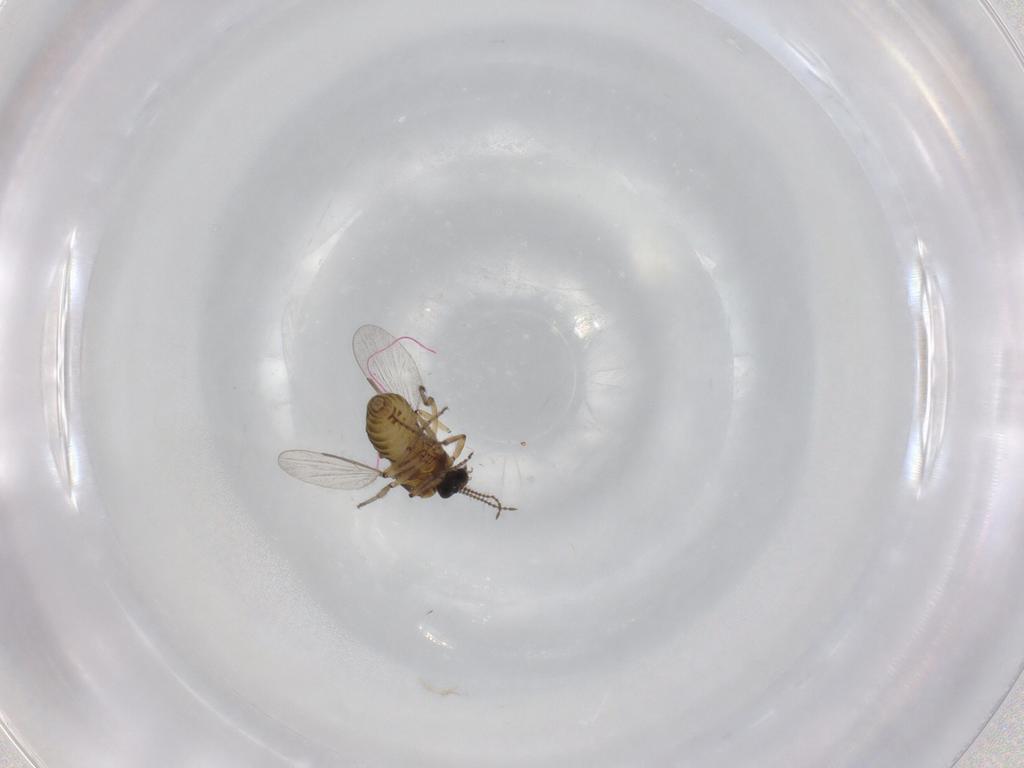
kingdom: Animalia
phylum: Arthropoda
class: Insecta
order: Diptera
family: Ceratopogonidae
